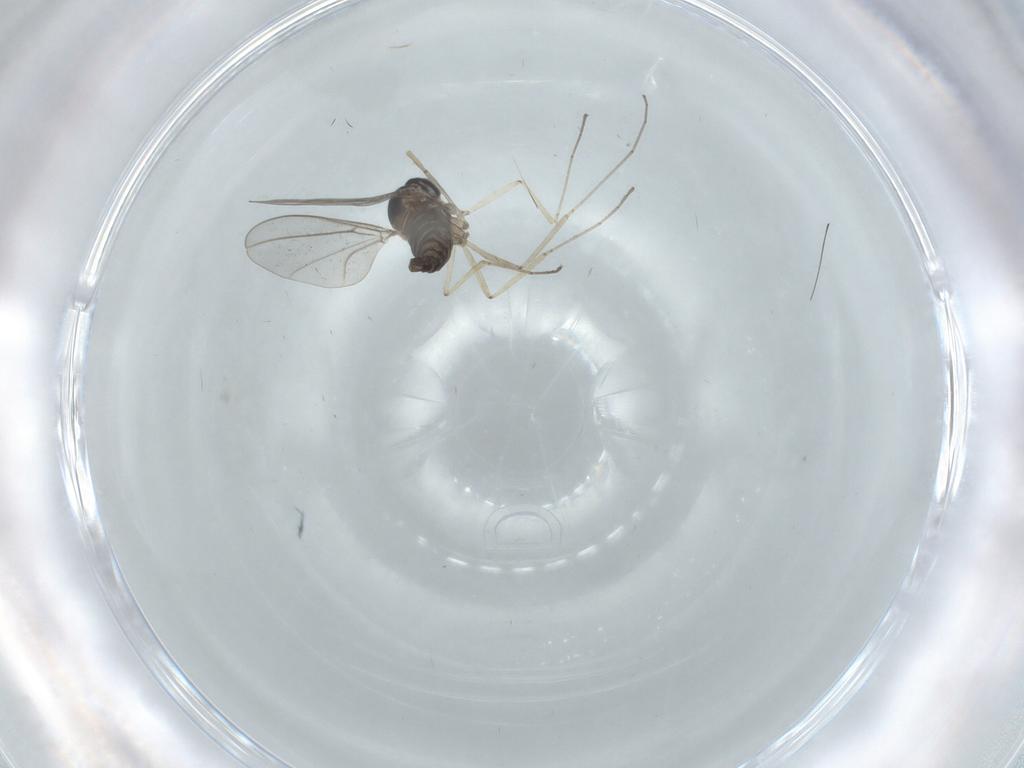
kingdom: Animalia
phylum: Arthropoda
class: Insecta
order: Diptera
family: Cecidomyiidae
